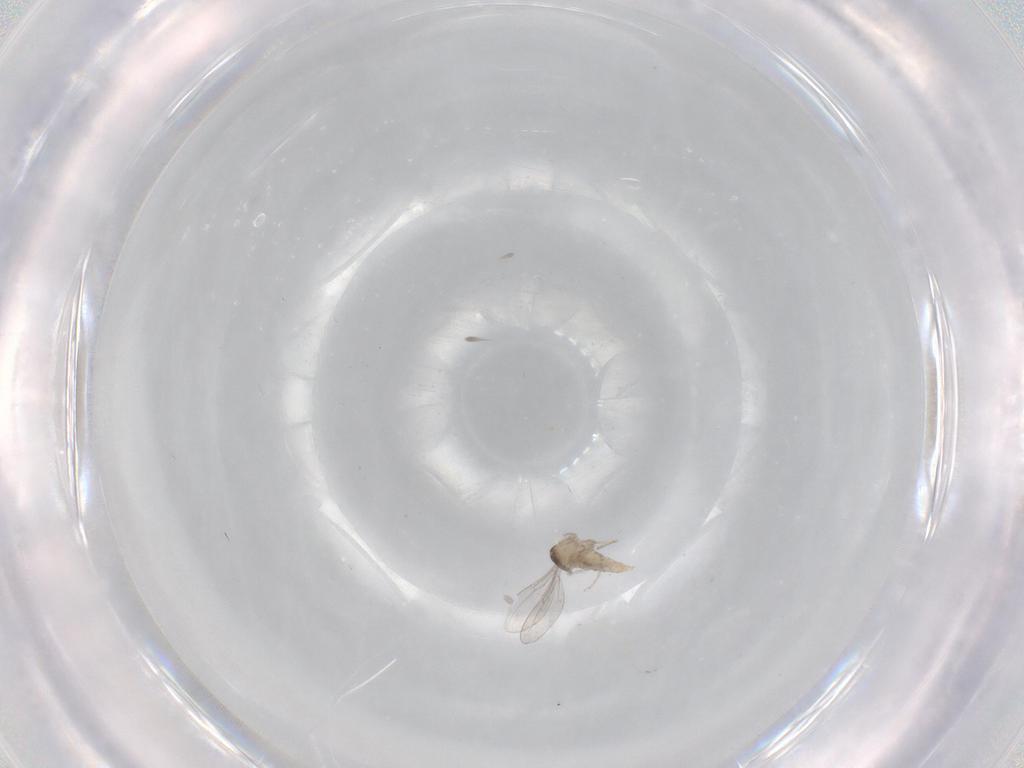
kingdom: Animalia
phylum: Arthropoda
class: Insecta
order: Diptera
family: Cecidomyiidae
